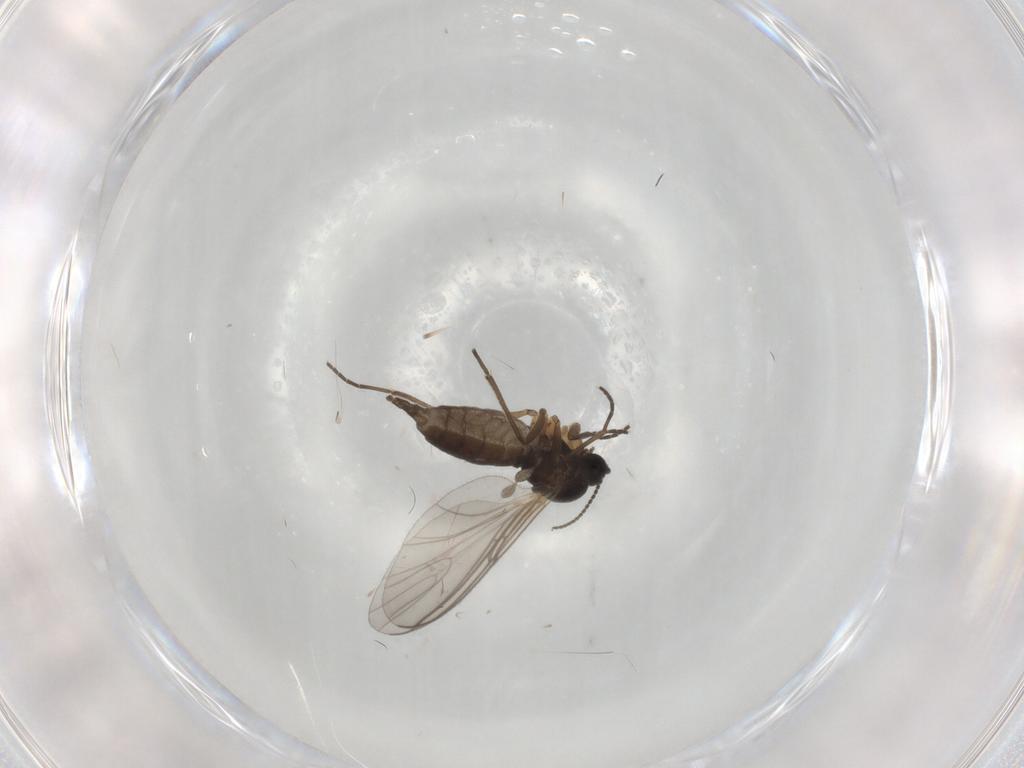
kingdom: Animalia
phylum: Arthropoda
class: Insecta
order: Diptera
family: Sciaridae
